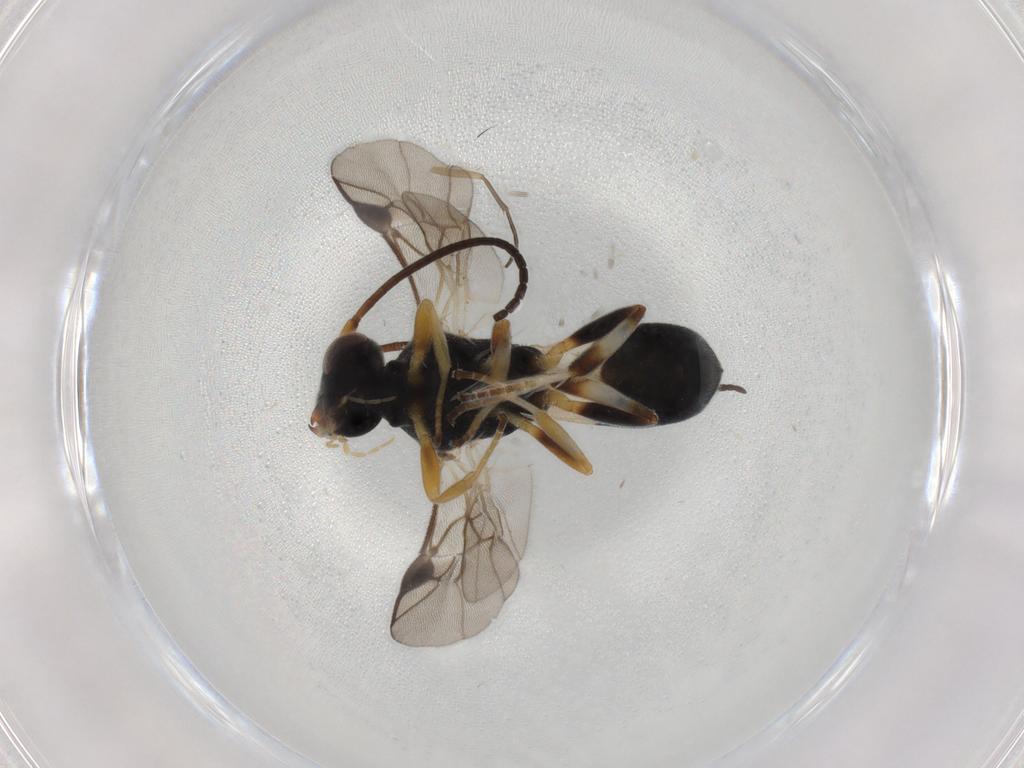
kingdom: Animalia
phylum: Arthropoda
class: Insecta
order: Hymenoptera
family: Braconidae
